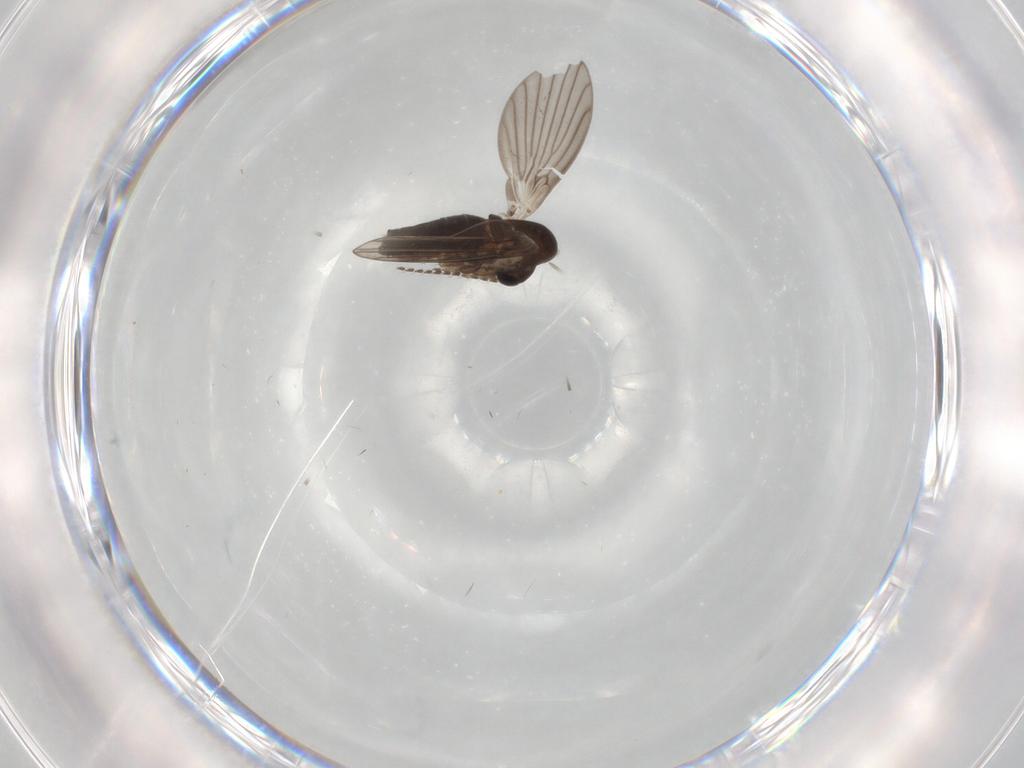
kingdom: Animalia
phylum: Arthropoda
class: Insecta
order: Diptera
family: Cecidomyiidae
